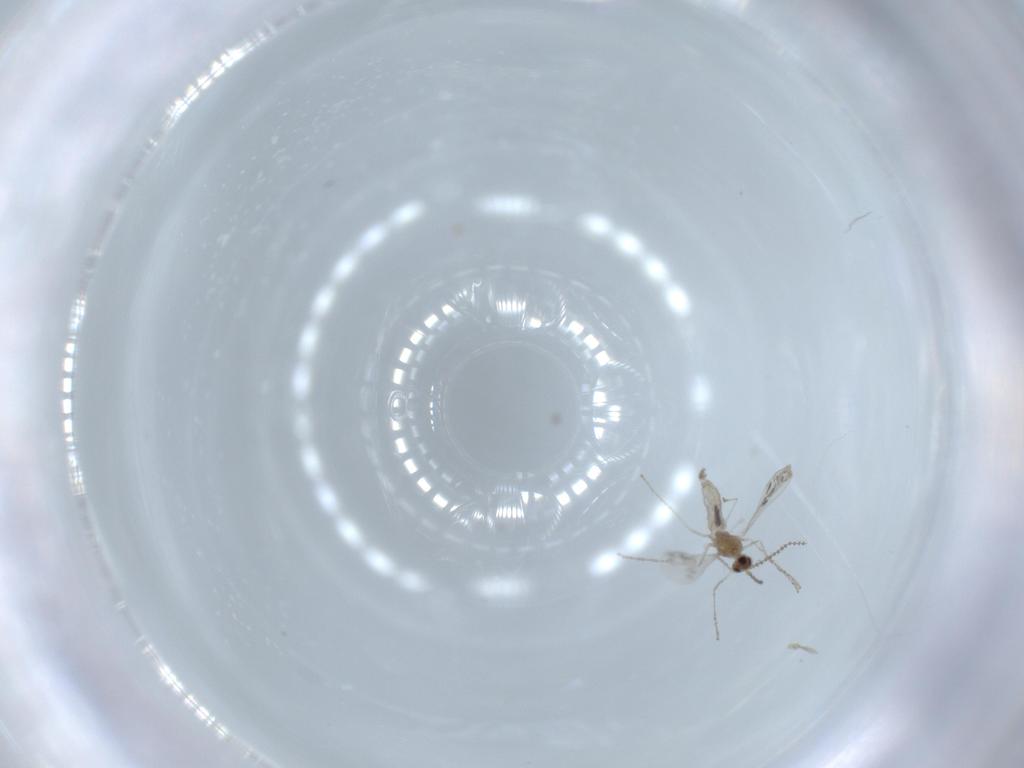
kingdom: Animalia
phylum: Arthropoda
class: Insecta
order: Diptera
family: Cecidomyiidae
